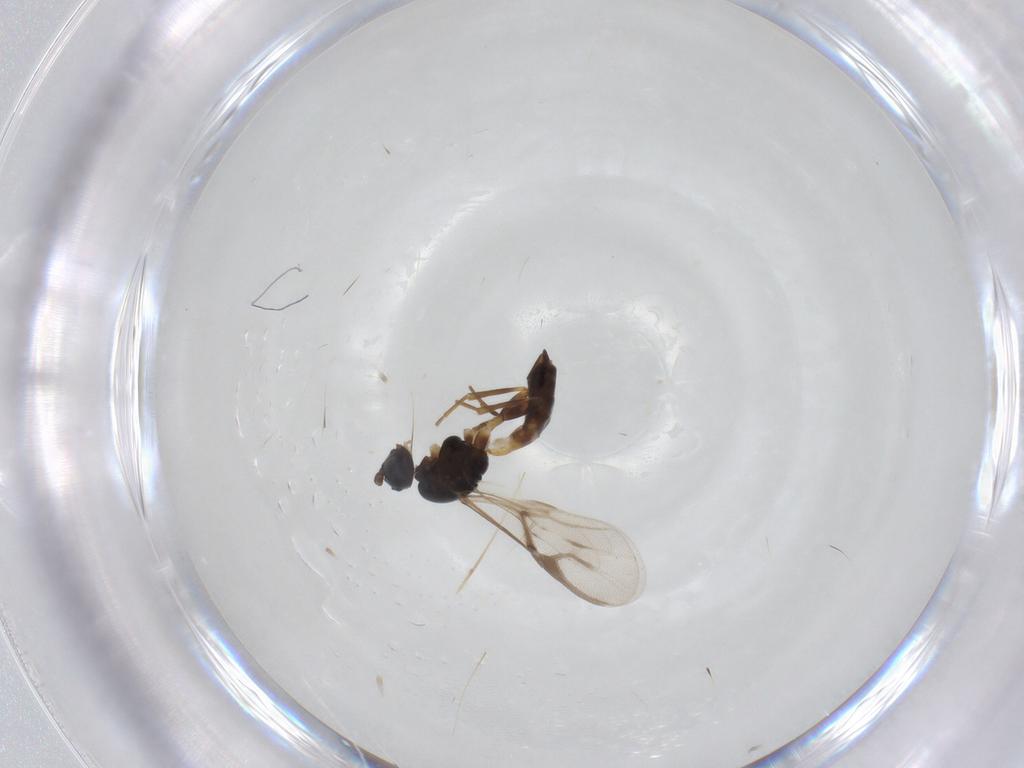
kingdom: Animalia
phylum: Arthropoda
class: Insecta
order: Hymenoptera
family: Braconidae
